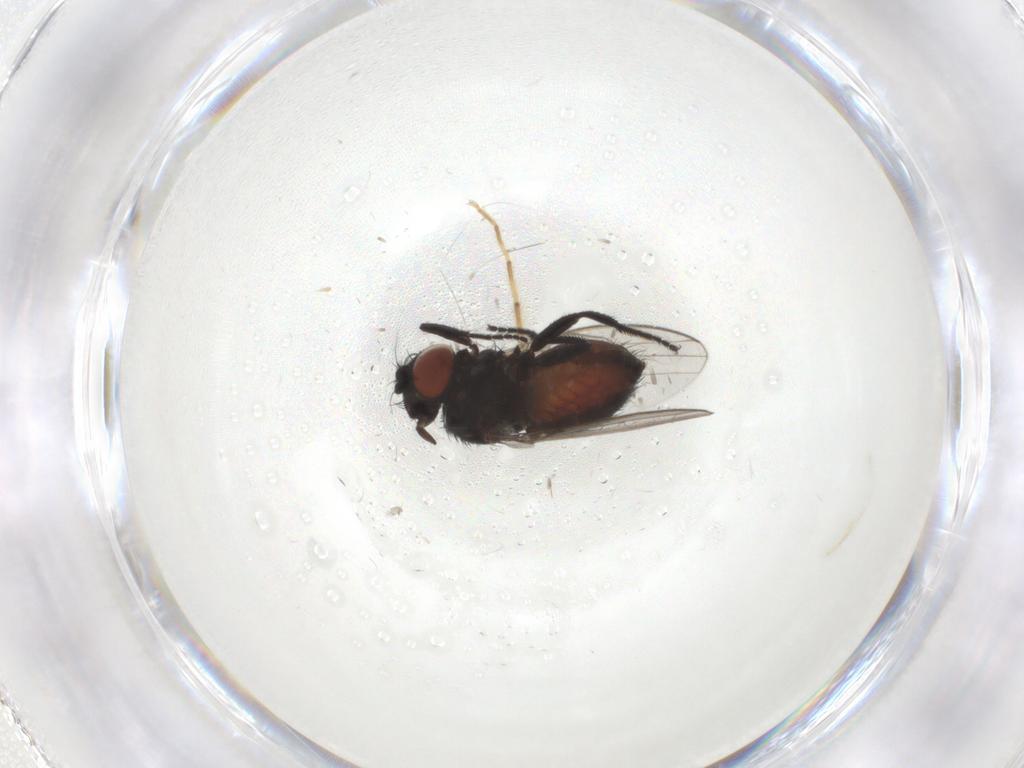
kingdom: Animalia
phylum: Arthropoda
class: Insecta
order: Diptera
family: Milichiidae
